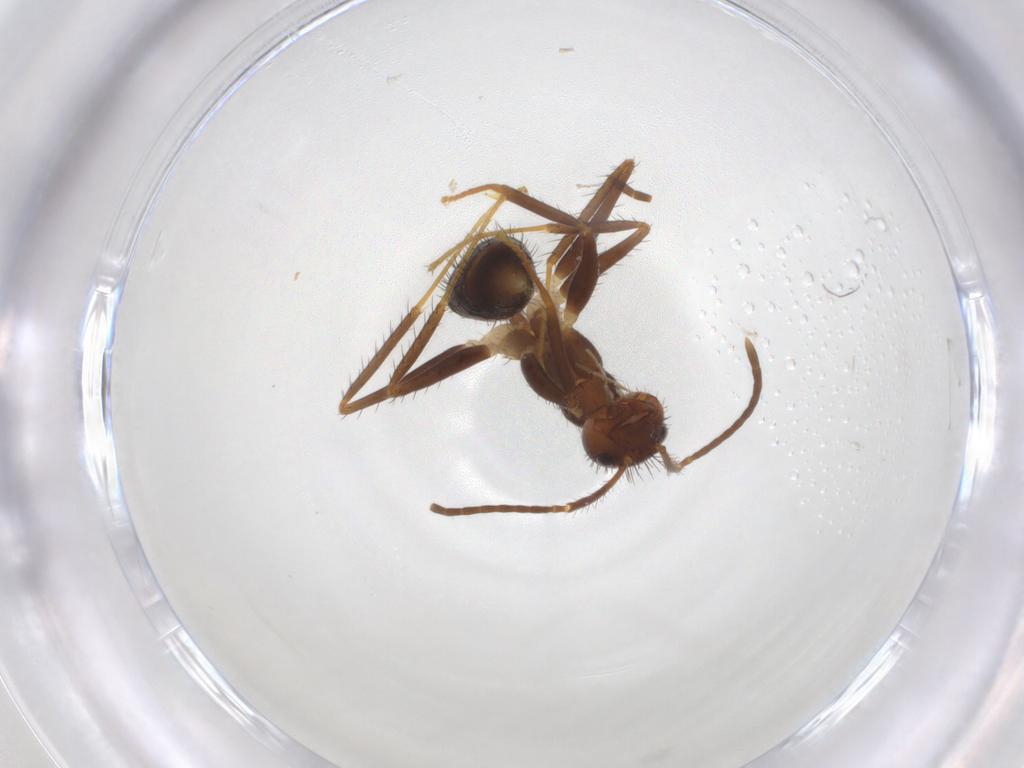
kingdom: Animalia
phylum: Arthropoda
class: Insecta
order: Hymenoptera
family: Formicidae
